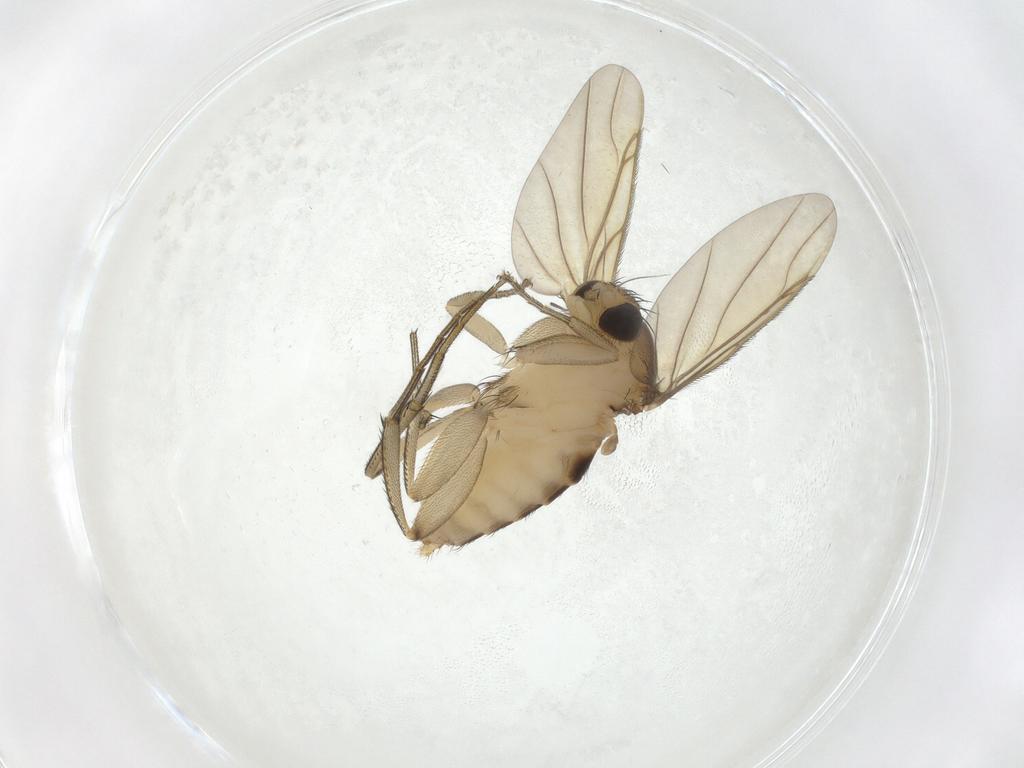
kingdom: Animalia
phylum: Arthropoda
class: Insecta
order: Diptera
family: Phoridae
